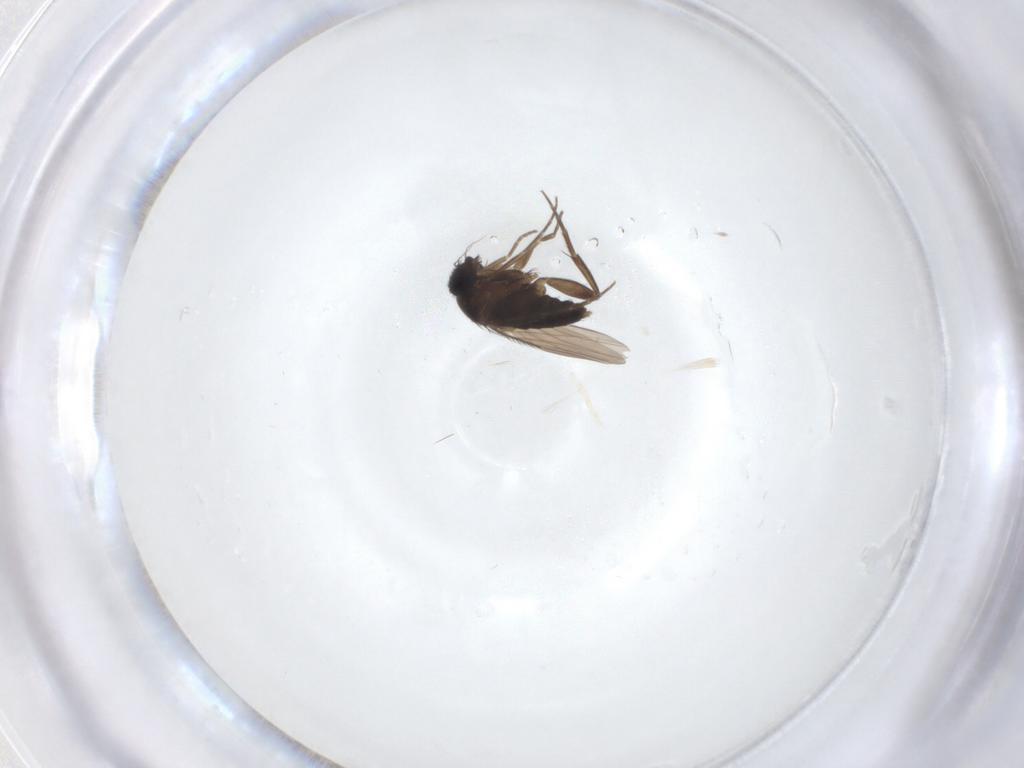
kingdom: Animalia
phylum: Arthropoda
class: Insecta
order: Diptera
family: Phoridae
